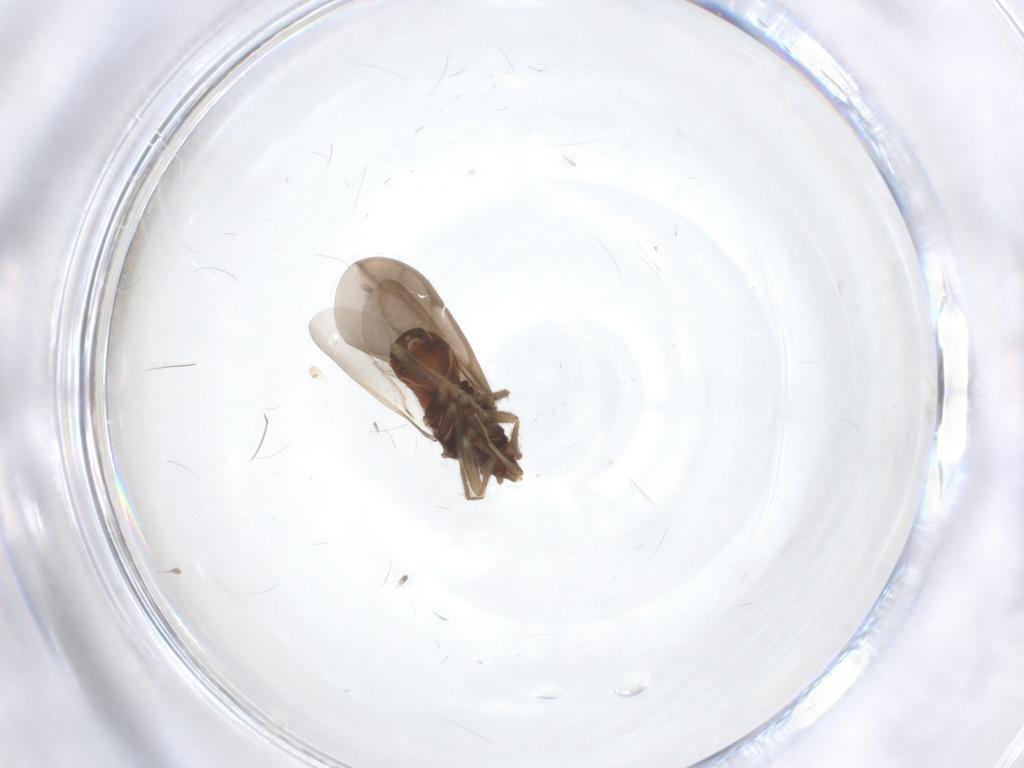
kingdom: Animalia
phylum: Arthropoda
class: Insecta
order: Hemiptera
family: Ceratocombidae
